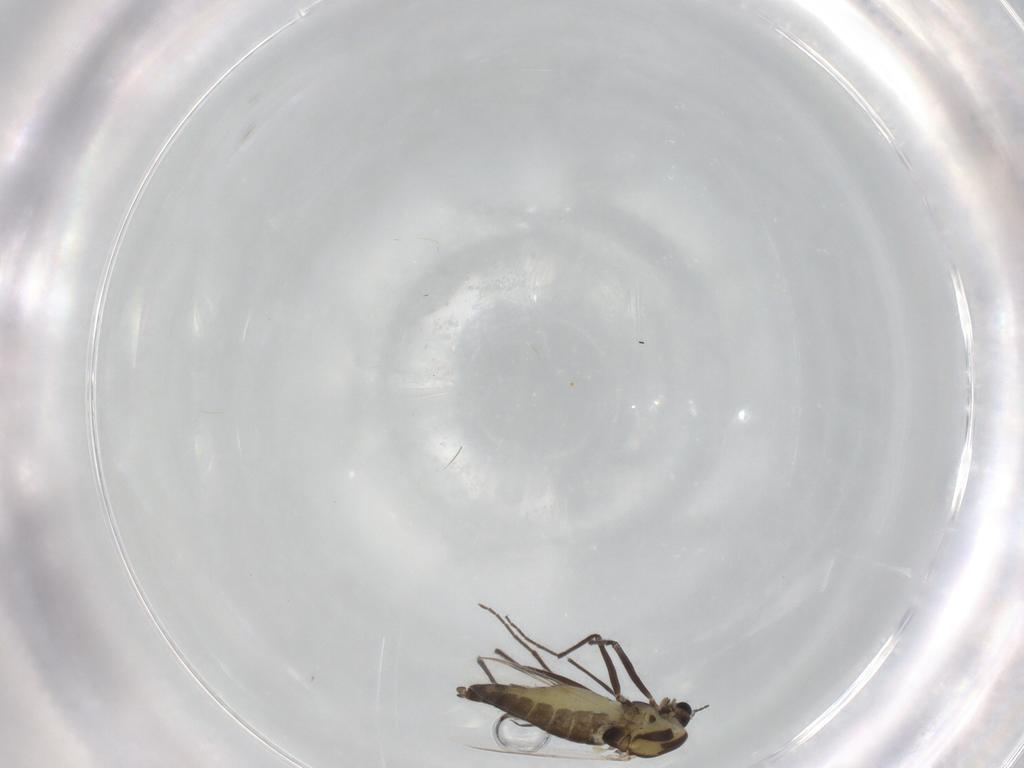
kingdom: Animalia
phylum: Arthropoda
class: Insecta
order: Diptera
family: Chironomidae
